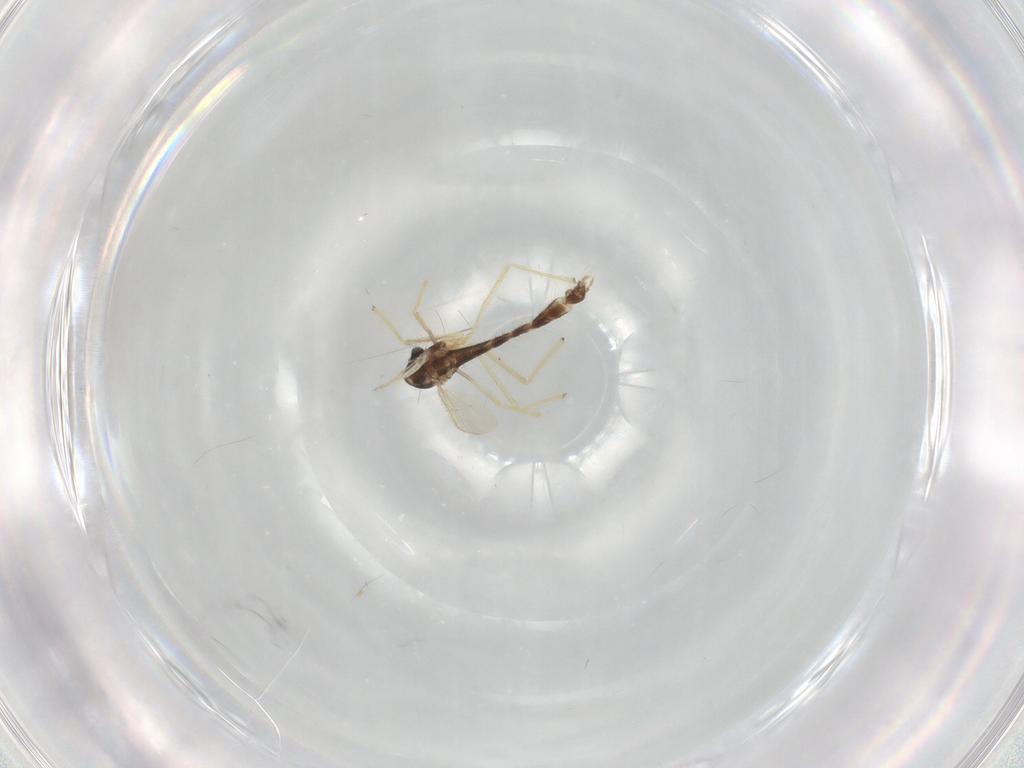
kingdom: Animalia
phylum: Arthropoda
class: Insecta
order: Diptera
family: Chironomidae
